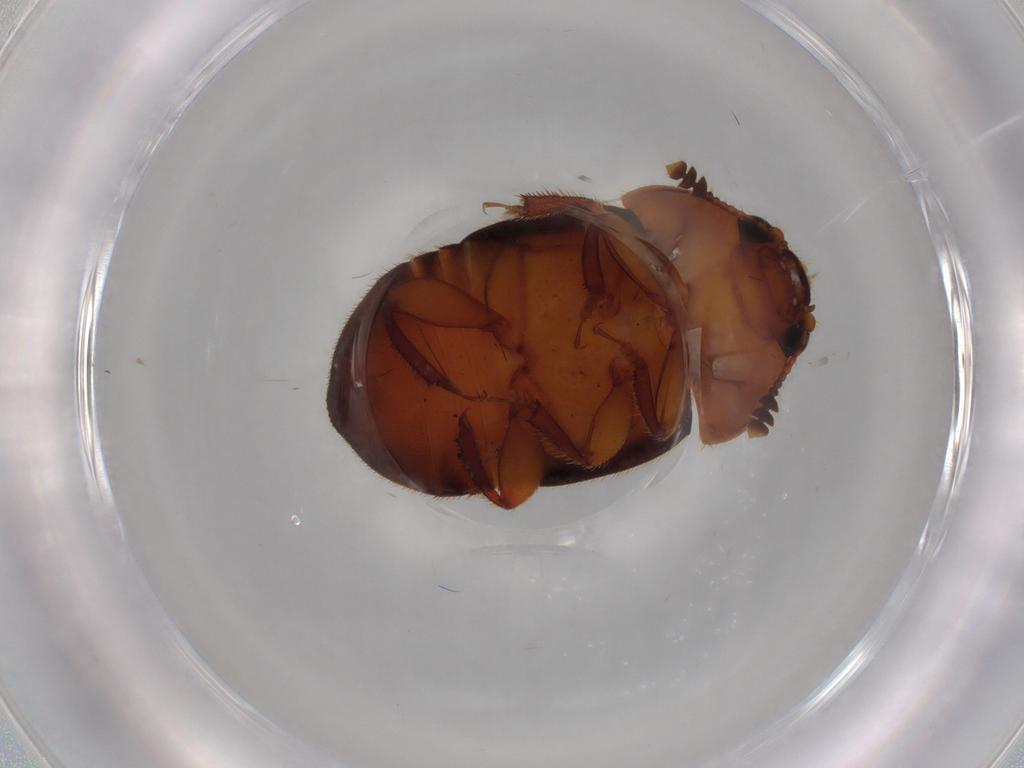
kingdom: Animalia
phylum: Arthropoda
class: Insecta
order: Coleoptera
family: Nitidulidae
